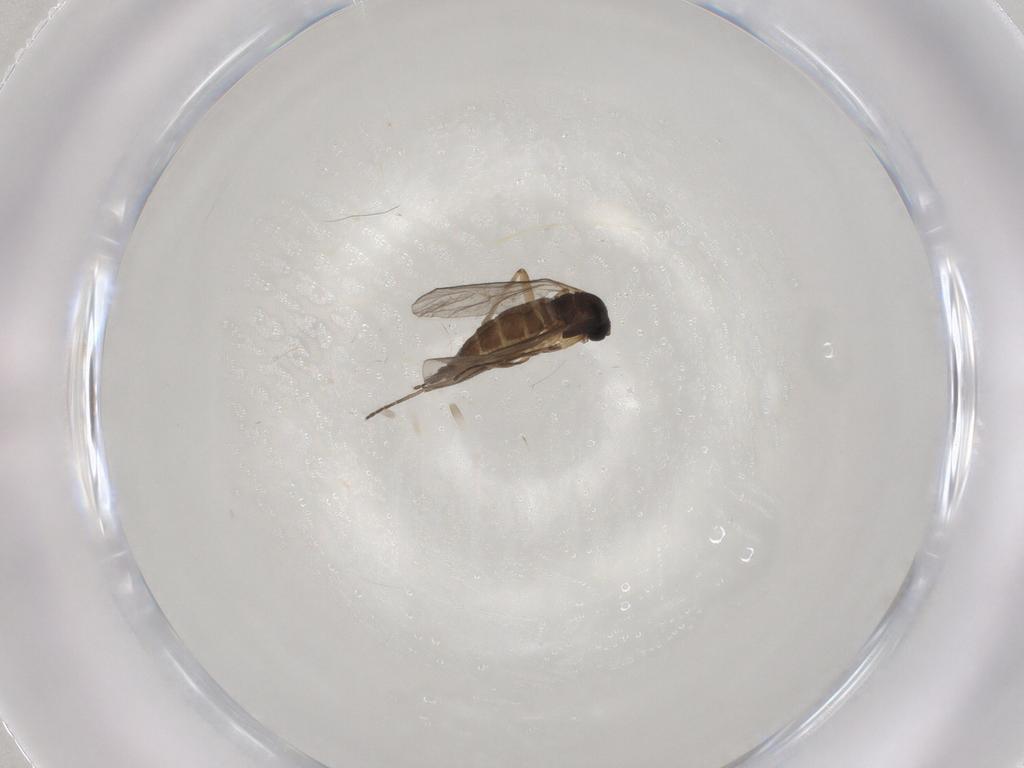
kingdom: Animalia
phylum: Arthropoda
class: Insecta
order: Diptera
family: Sciaridae
